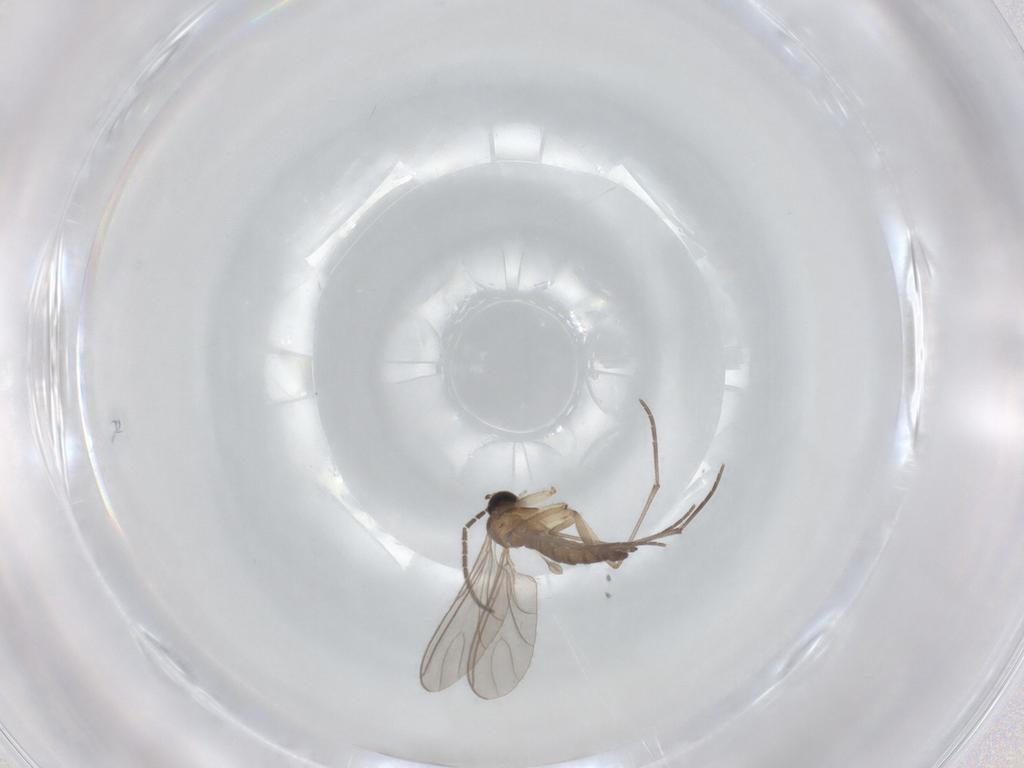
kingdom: Animalia
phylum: Arthropoda
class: Insecta
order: Diptera
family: Sciaridae
